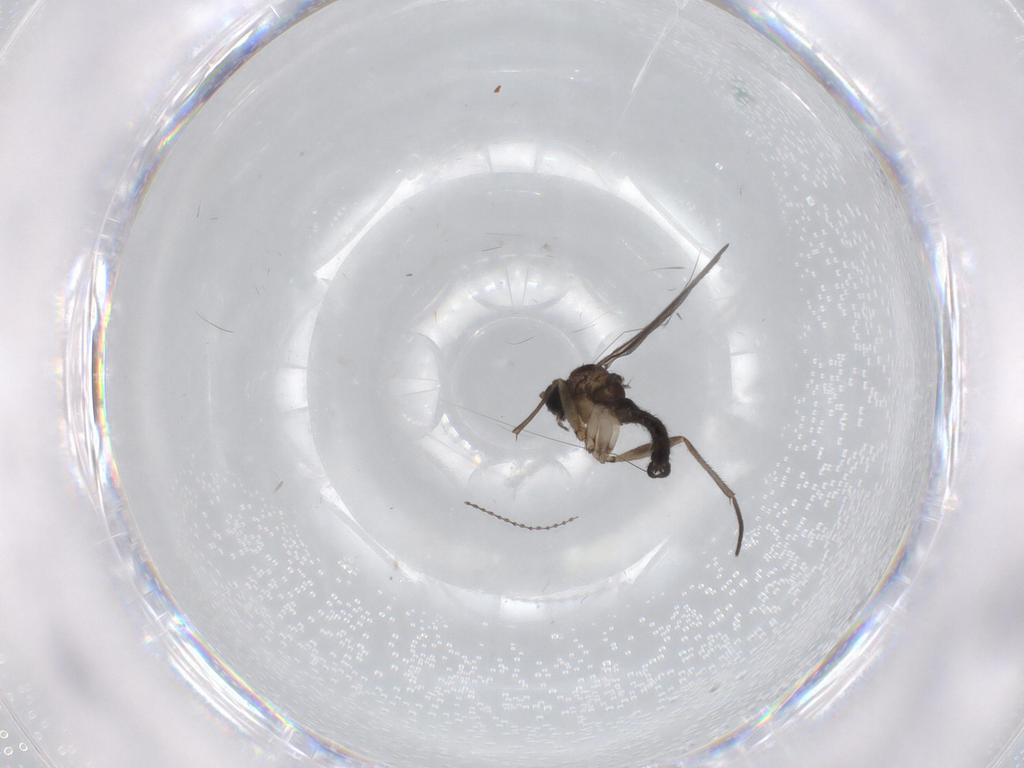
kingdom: Animalia
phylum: Arthropoda
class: Insecta
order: Diptera
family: Sciaridae
